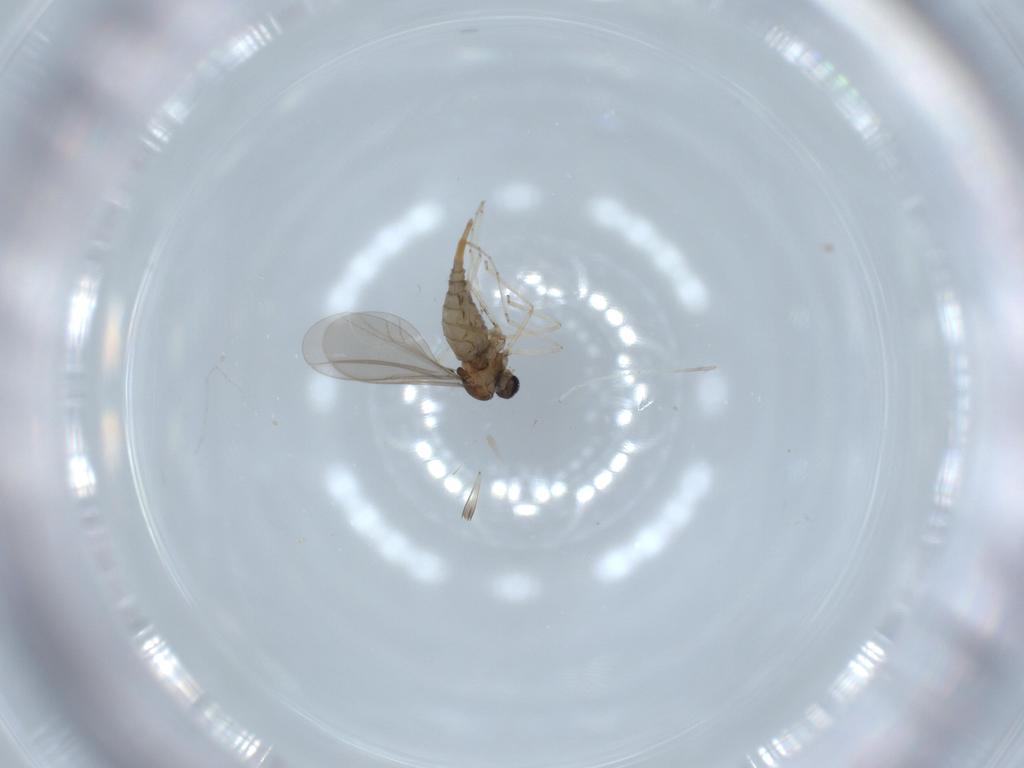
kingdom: Animalia
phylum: Arthropoda
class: Insecta
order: Diptera
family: Cecidomyiidae
